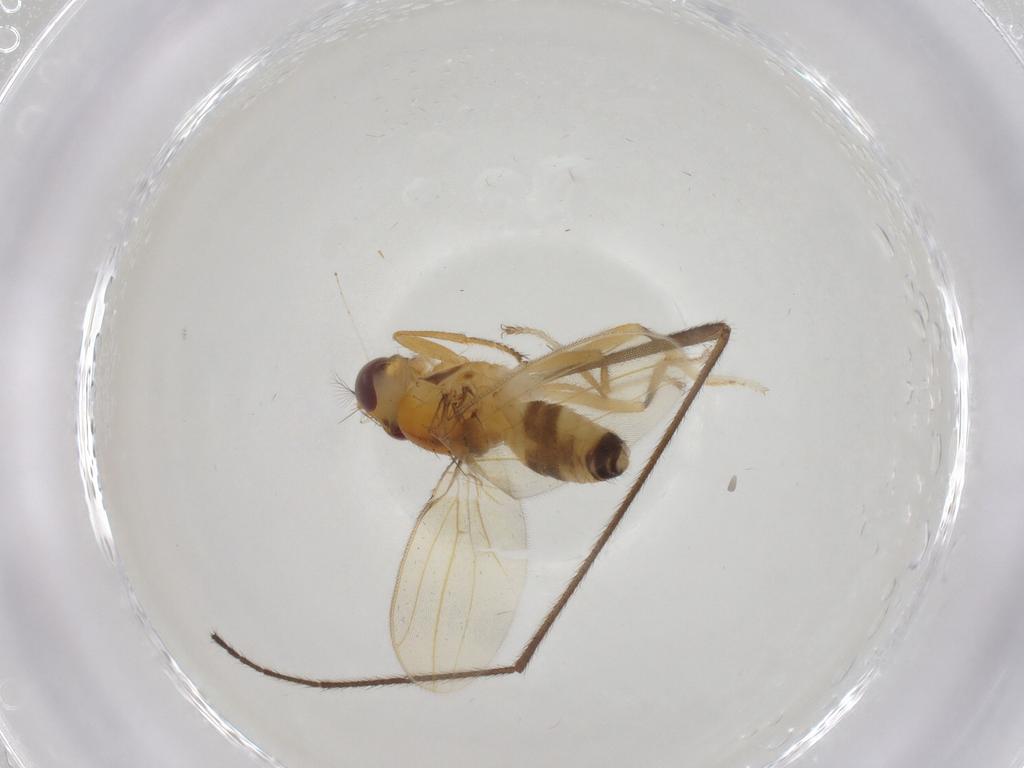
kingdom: Animalia
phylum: Arthropoda
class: Insecta
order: Diptera
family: Periscelididae
